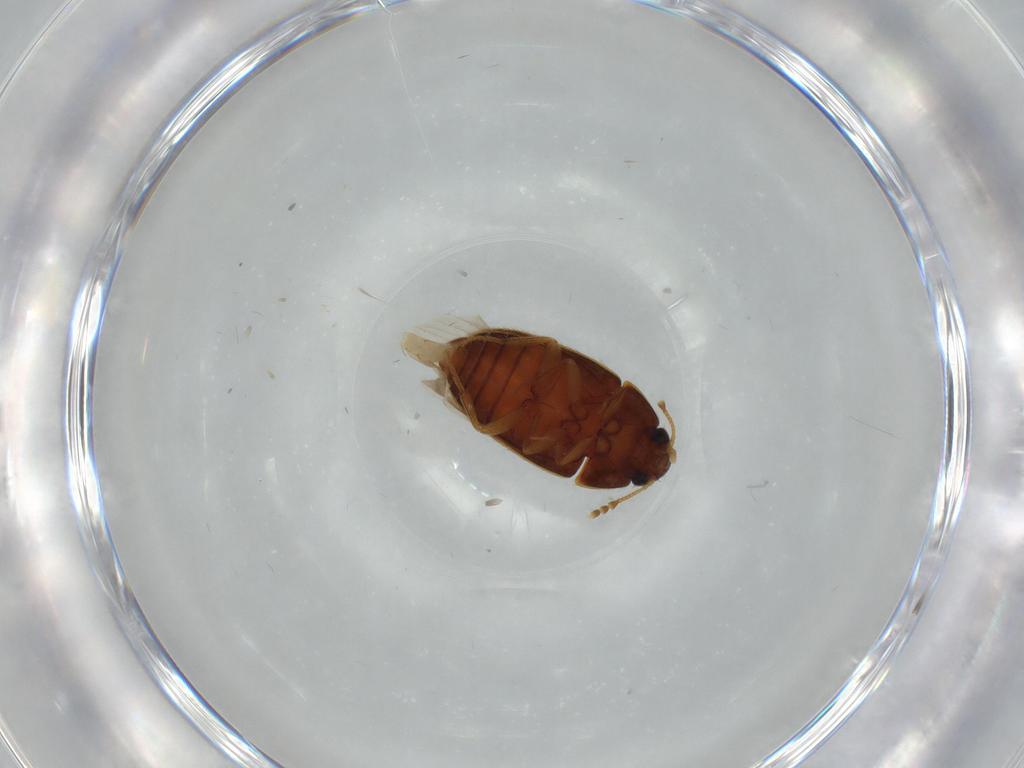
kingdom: Animalia
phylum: Arthropoda
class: Insecta
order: Coleoptera
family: Mycetophagidae
